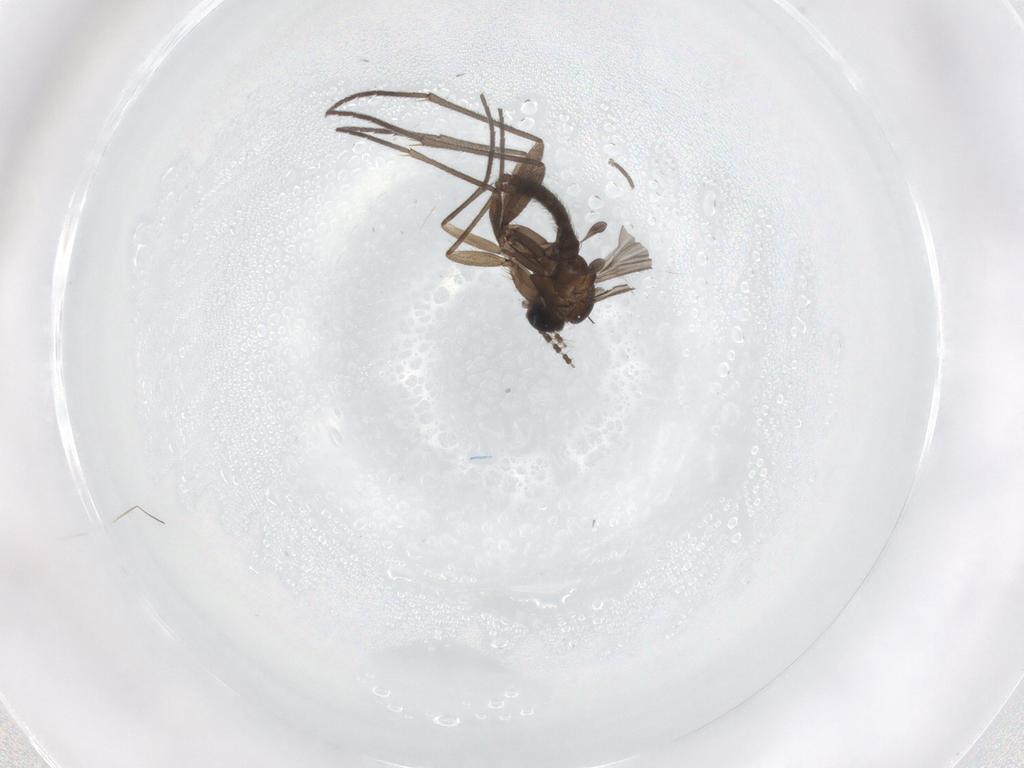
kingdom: Animalia
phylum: Arthropoda
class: Insecta
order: Diptera
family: Sciaridae
